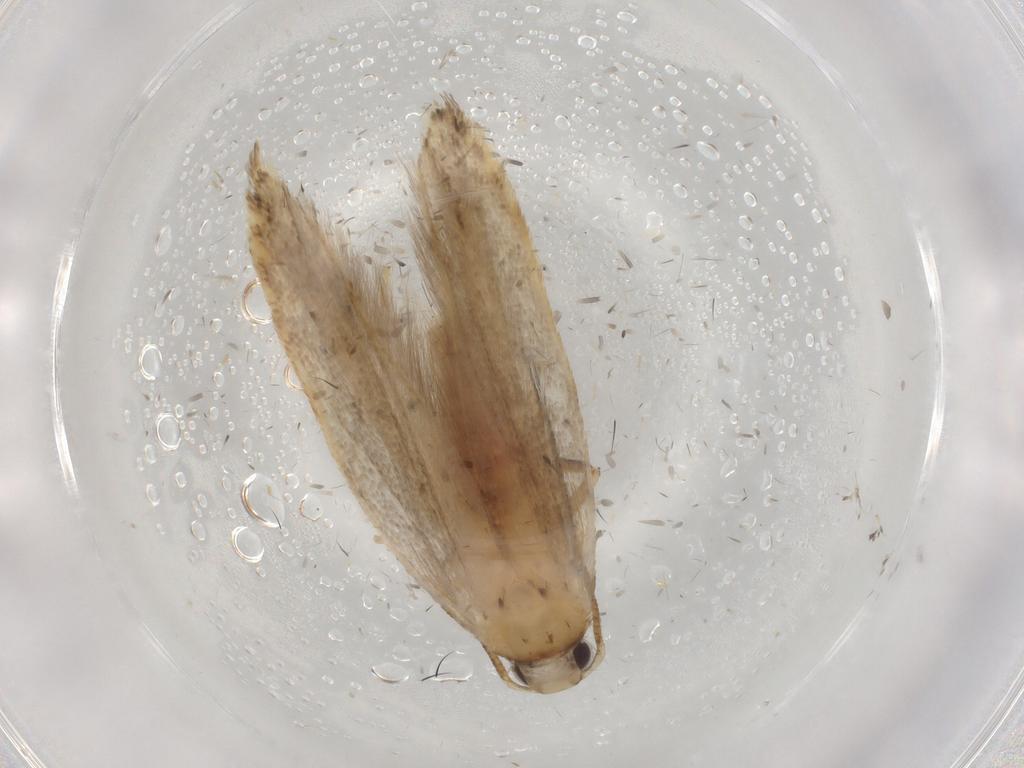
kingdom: Animalia
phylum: Arthropoda
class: Insecta
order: Lepidoptera
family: Gelechiidae
